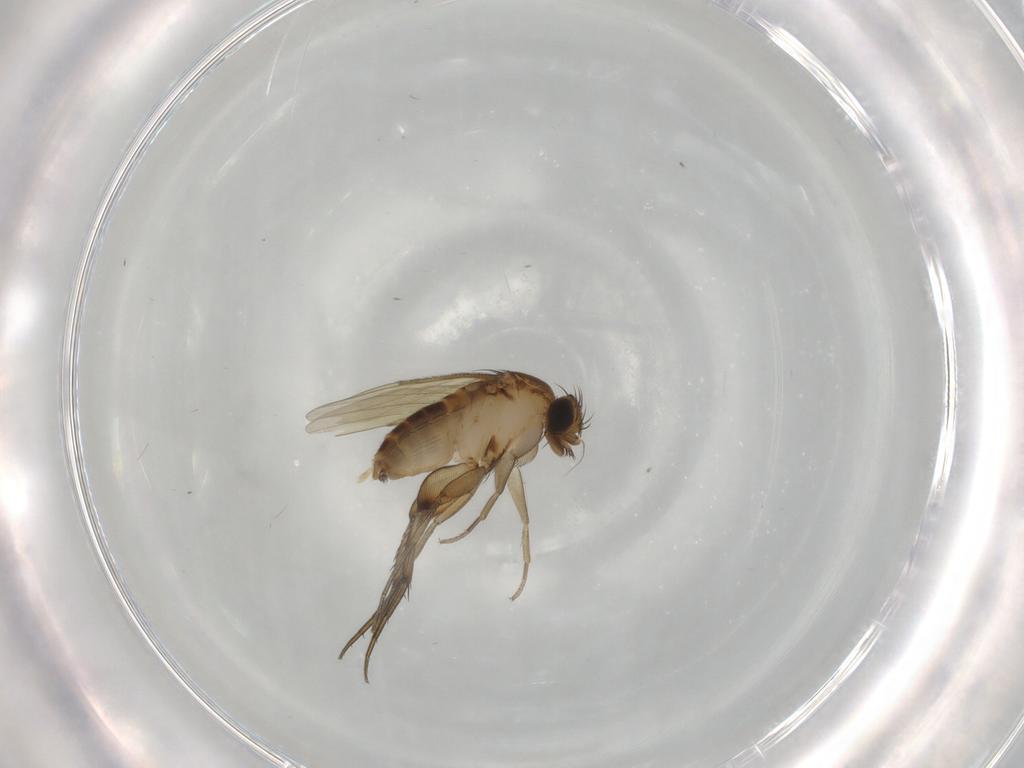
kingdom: Animalia
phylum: Arthropoda
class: Insecta
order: Diptera
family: Phoridae
